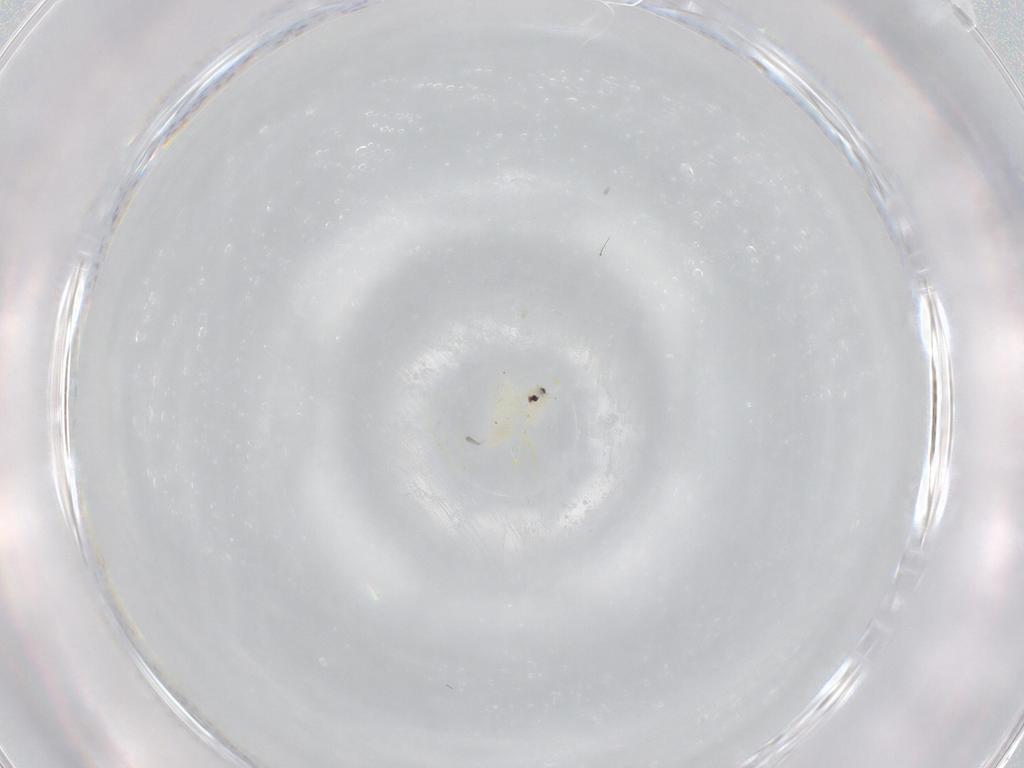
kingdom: Animalia
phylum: Arthropoda
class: Insecta
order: Hemiptera
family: Aleyrodidae
